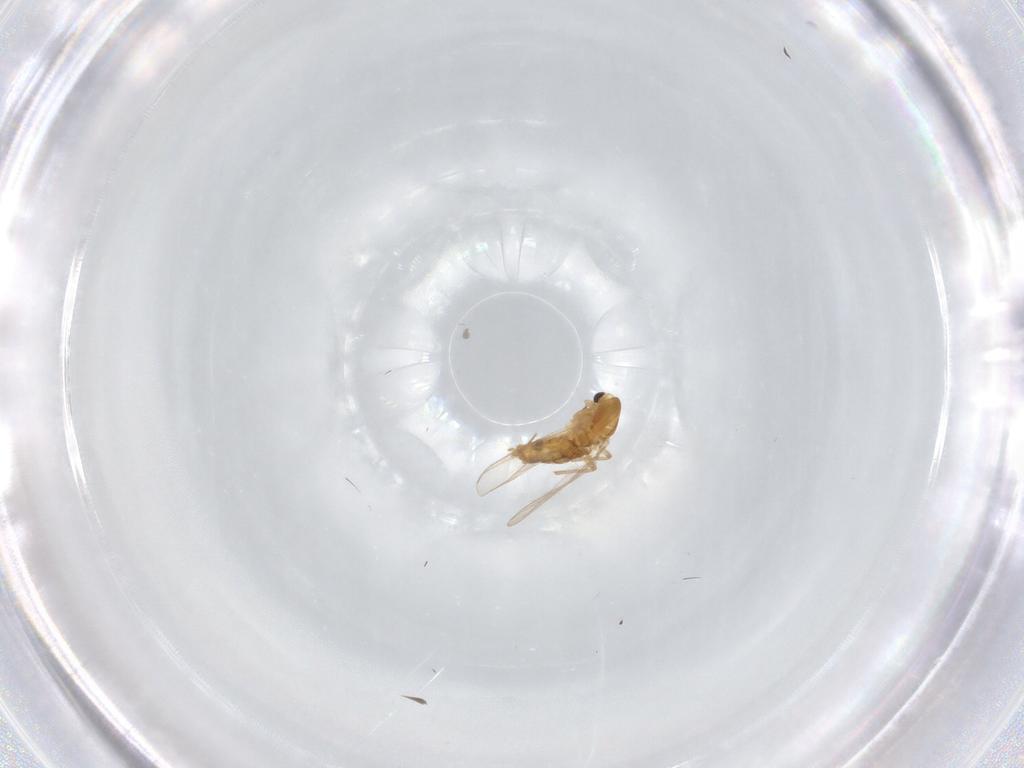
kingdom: Animalia
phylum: Arthropoda
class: Insecta
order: Diptera
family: Chironomidae
